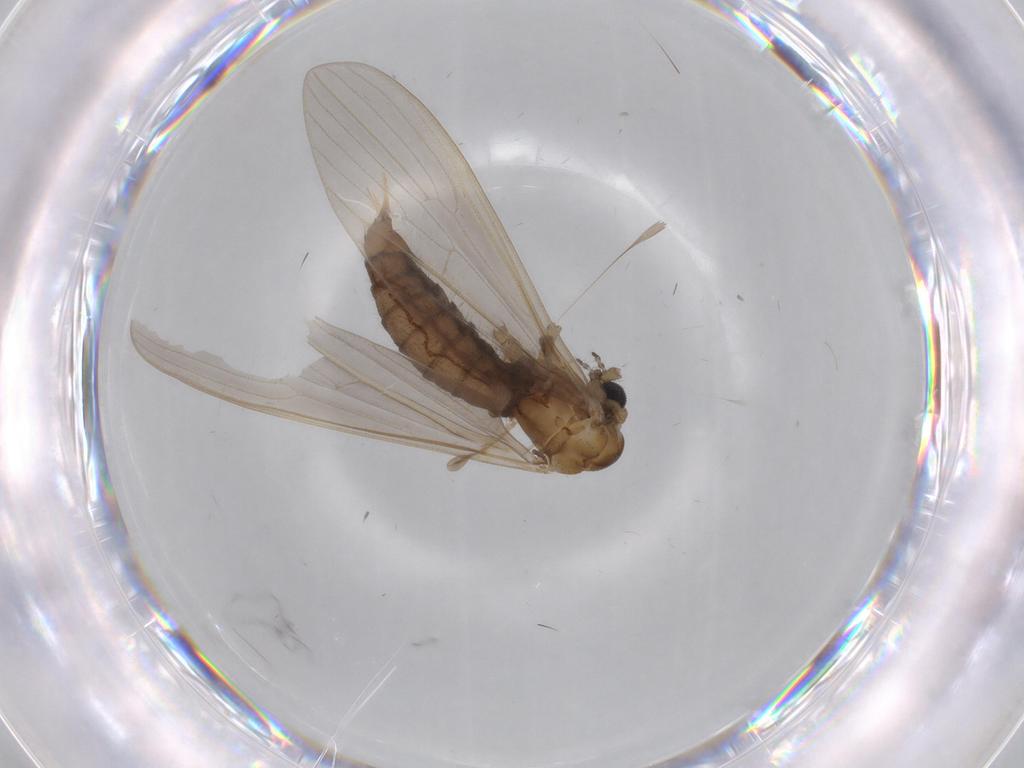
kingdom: Animalia
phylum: Arthropoda
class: Insecta
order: Diptera
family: Limoniidae
